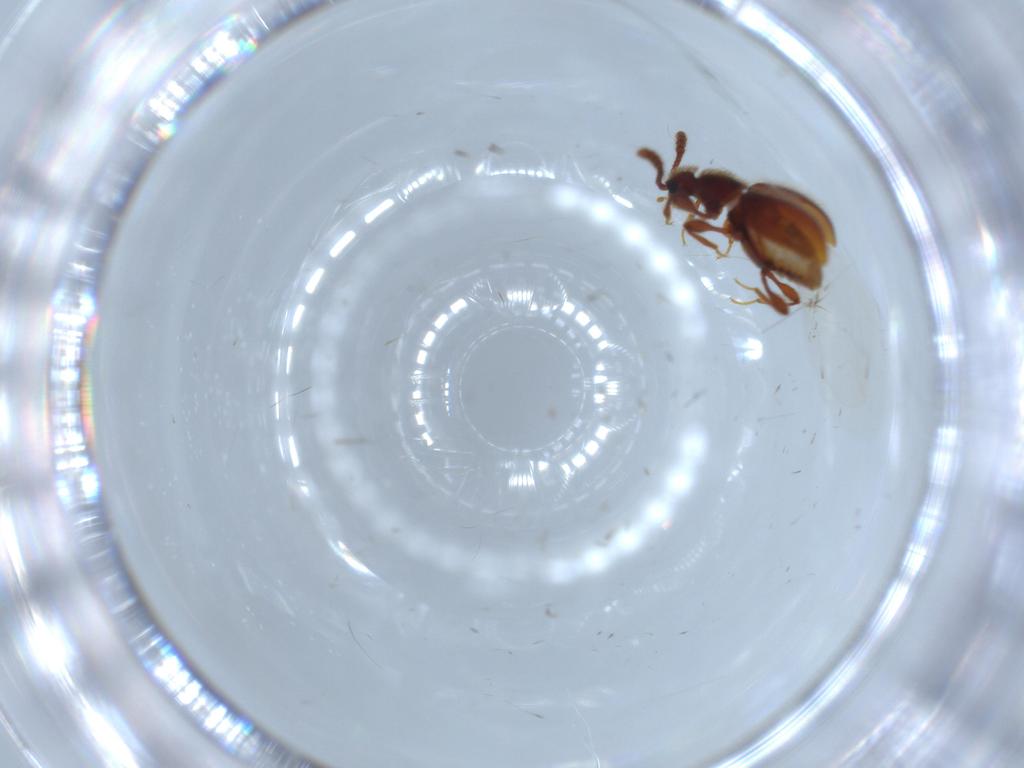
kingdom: Animalia
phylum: Arthropoda
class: Insecta
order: Coleoptera
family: Staphylinidae
